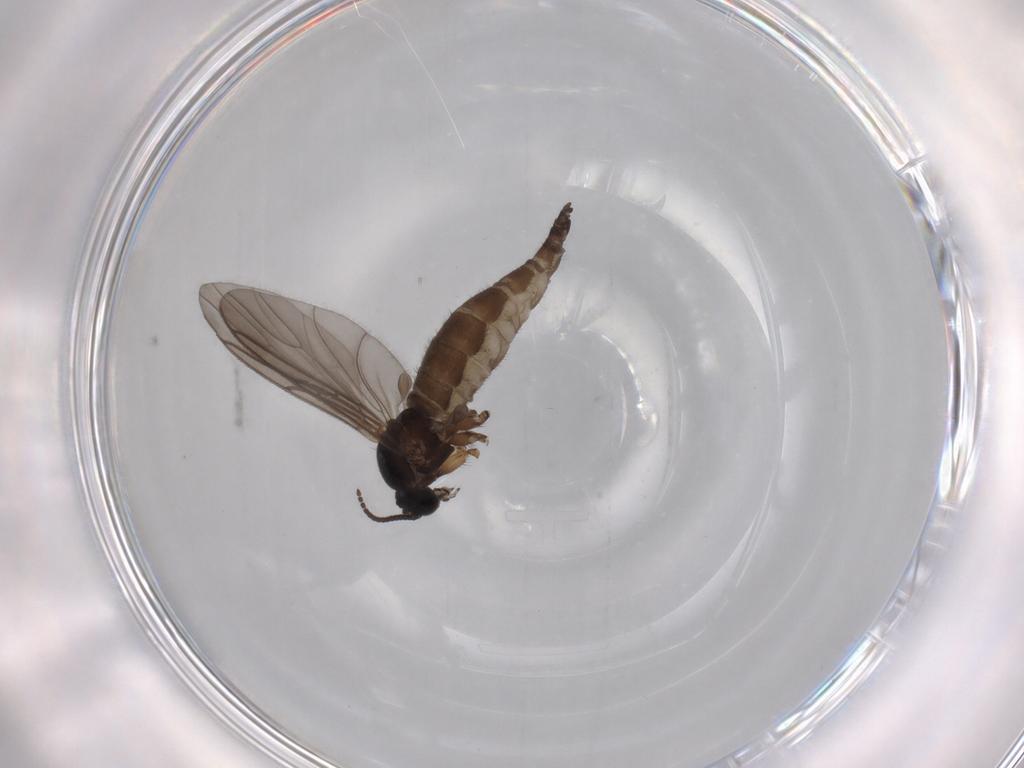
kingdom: Animalia
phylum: Arthropoda
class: Insecta
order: Diptera
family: Sciaridae
